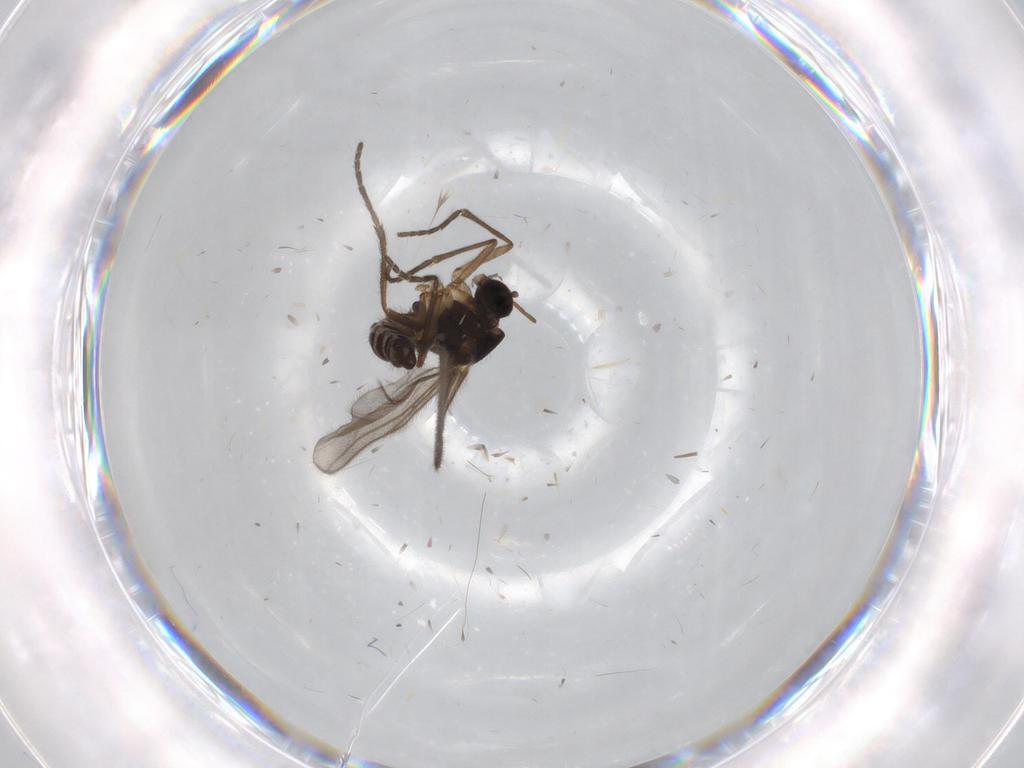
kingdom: Animalia
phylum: Arthropoda
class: Insecta
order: Diptera
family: Mycetophilidae
